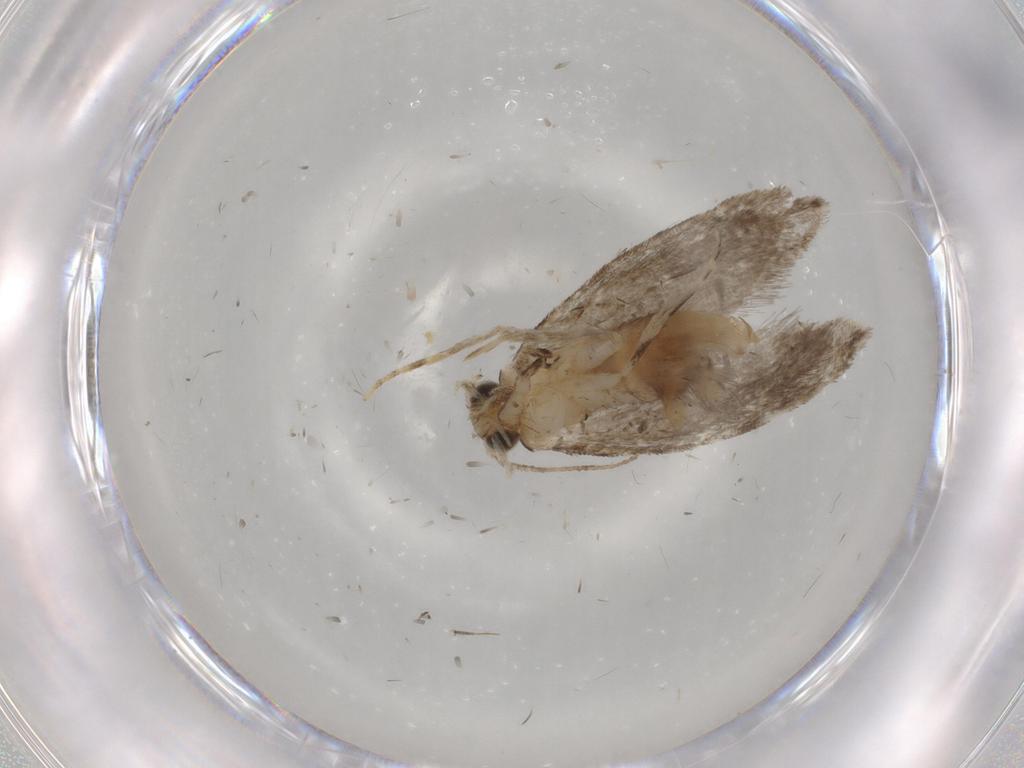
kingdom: Animalia
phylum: Arthropoda
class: Insecta
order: Lepidoptera
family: Tineidae
